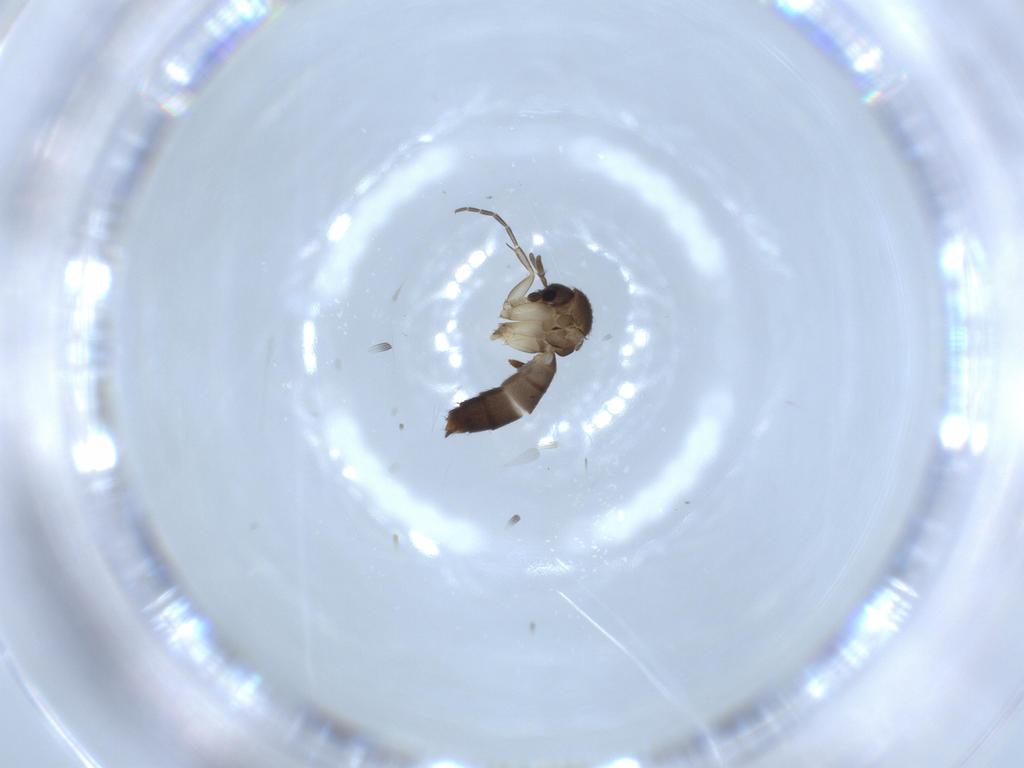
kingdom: Animalia
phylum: Arthropoda
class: Insecta
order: Diptera
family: Mycetophilidae
